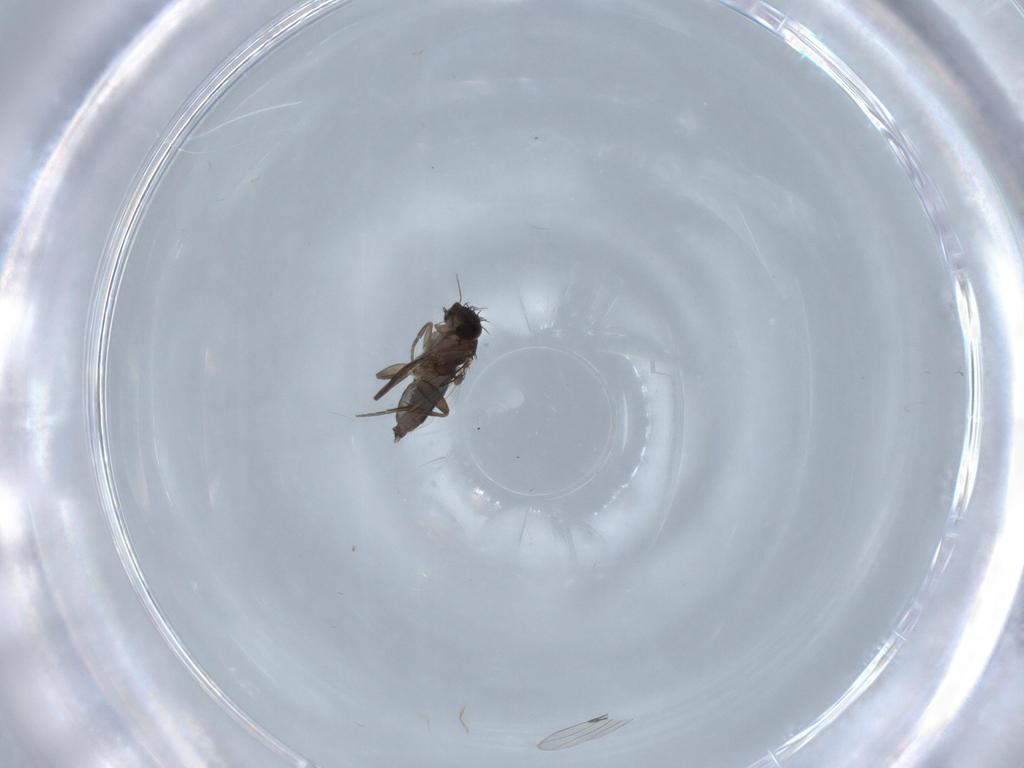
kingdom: Animalia
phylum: Arthropoda
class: Insecta
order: Diptera
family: Phoridae
